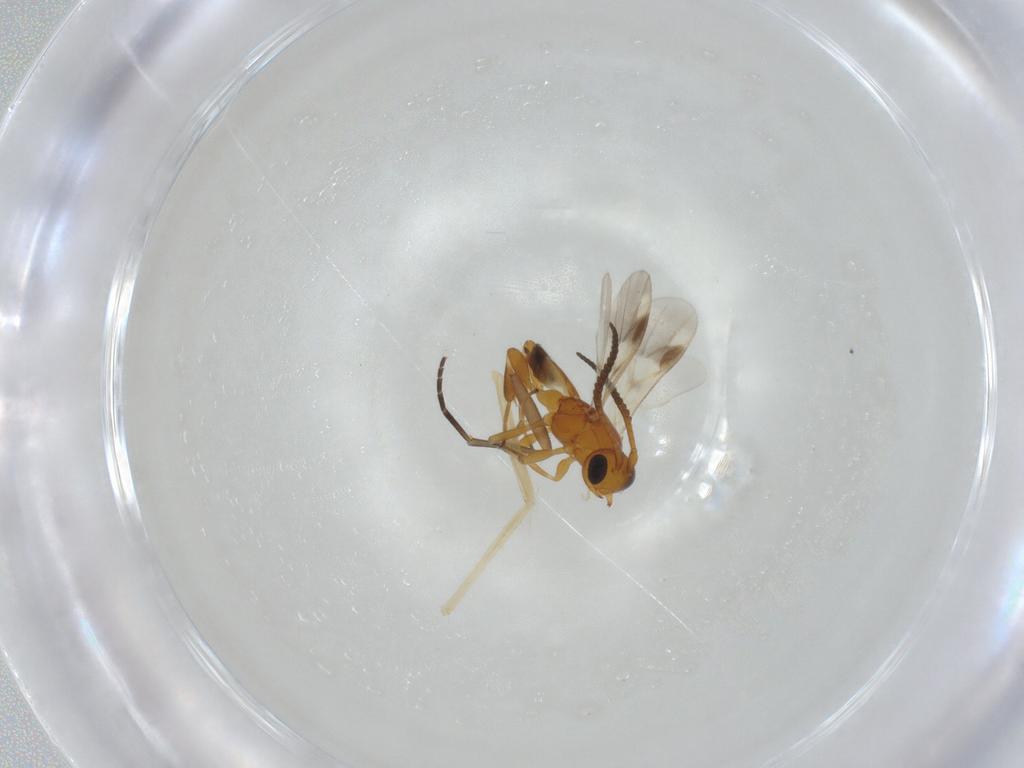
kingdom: Animalia
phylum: Arthropoda
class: Insecta
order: Hymenoptera
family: Braconidae
